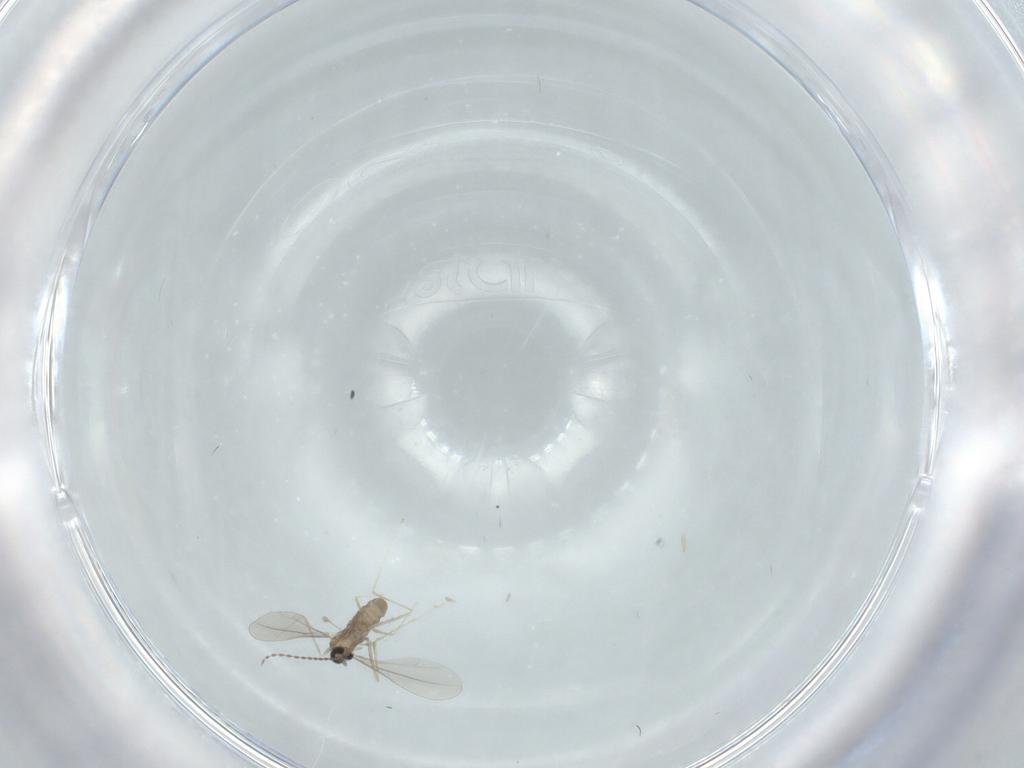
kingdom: Animalia
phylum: Arthropoda
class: Insecta
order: Diptera
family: Cecidomyiidae
